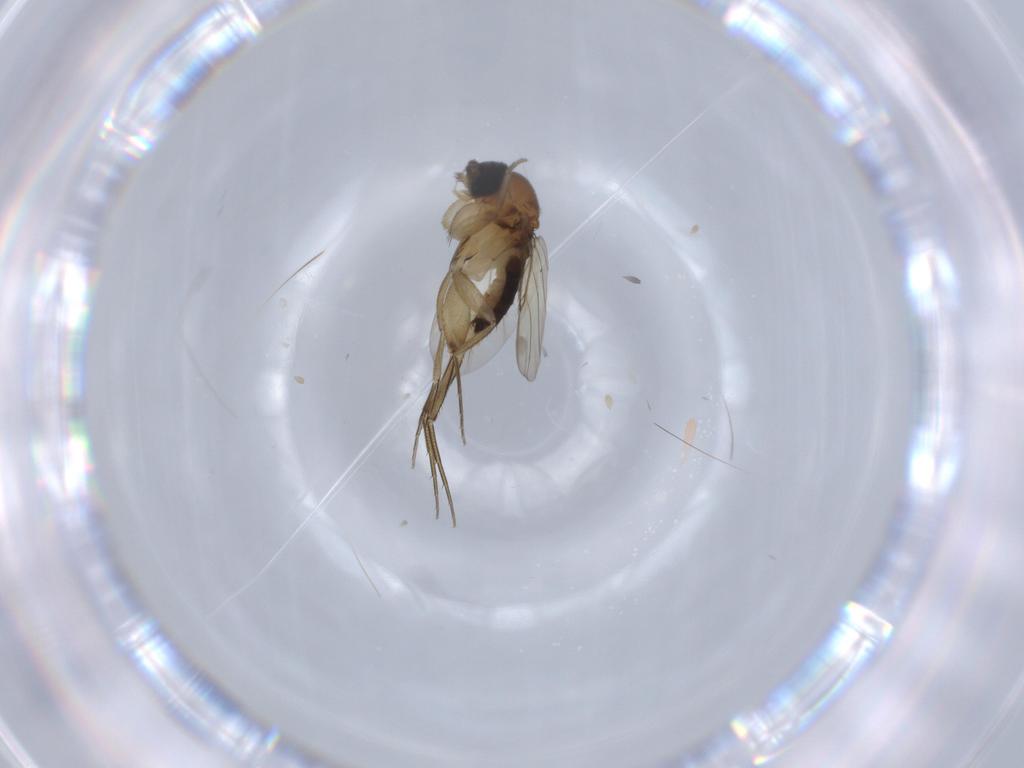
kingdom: Animalia
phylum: Arthropoda
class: Insecta
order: Diptera
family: Phoridae
